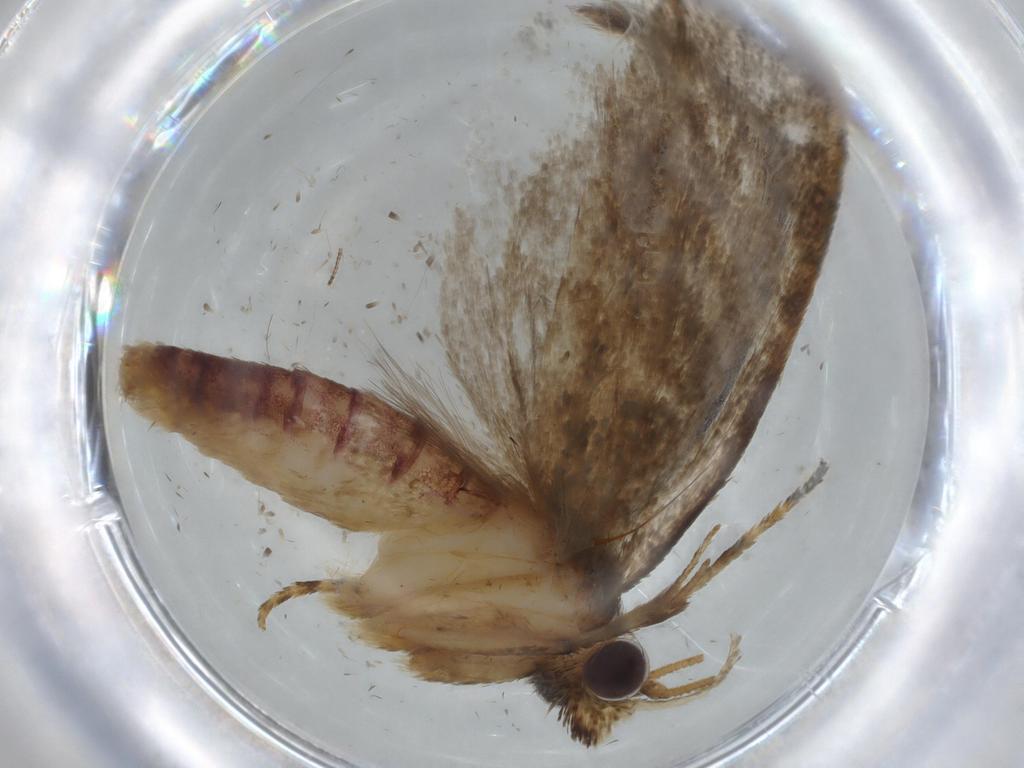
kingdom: Animalia
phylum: Arthropoda
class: Insecta
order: Lepidoptera
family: Tineidae
